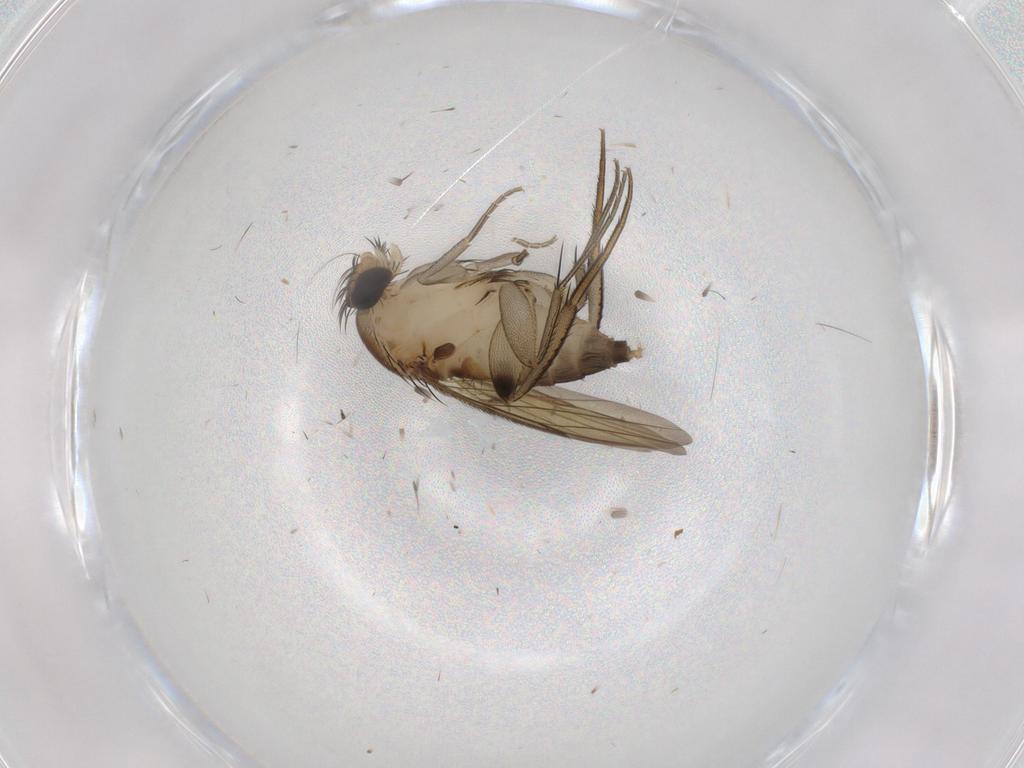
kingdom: Animalia
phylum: Arthropoda
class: Insecta
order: Diptera
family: Phoridae
